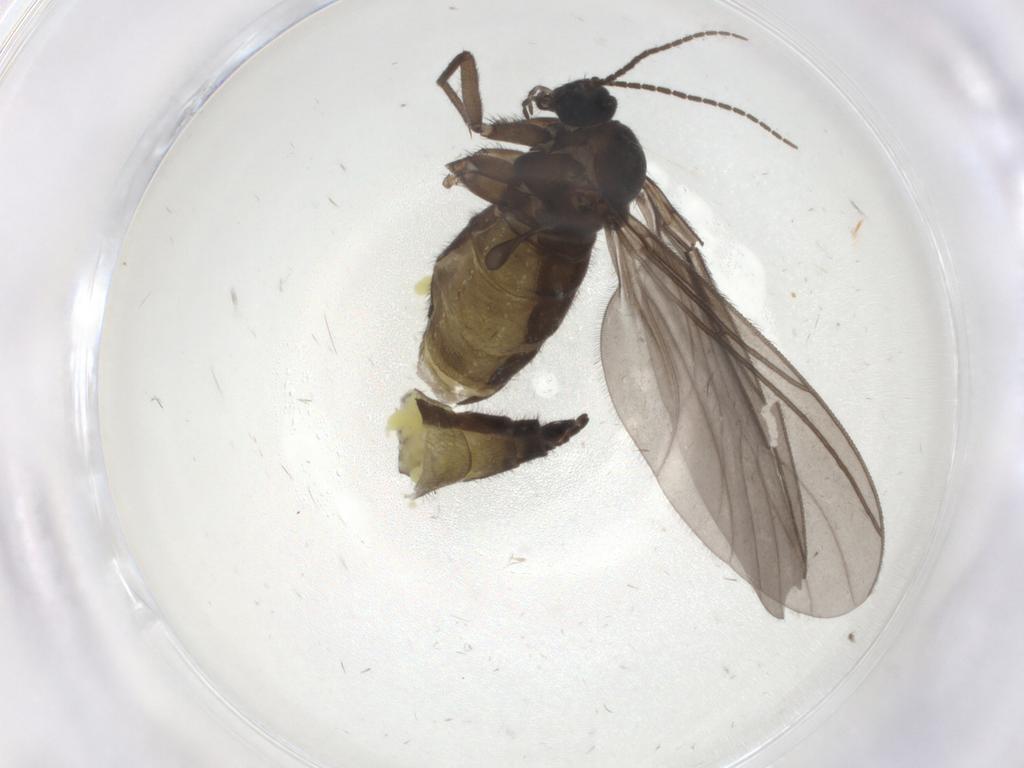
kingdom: Animalia
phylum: Arthropoda
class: Insecta
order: Diptera
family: Sciaridae
